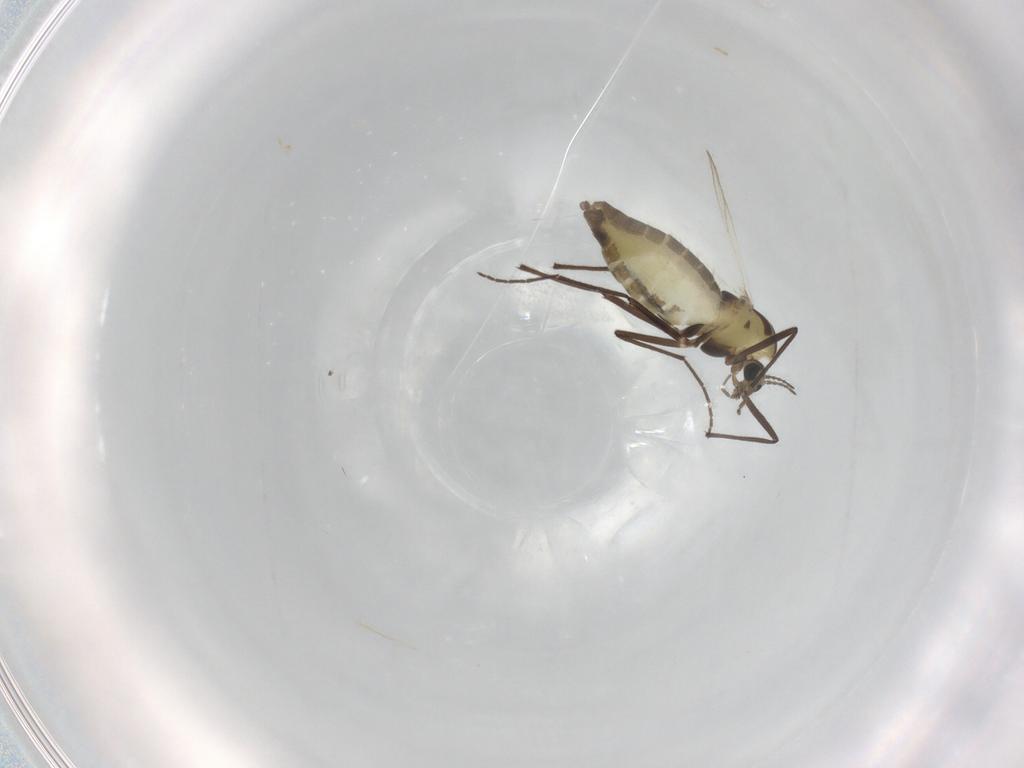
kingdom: Animalia
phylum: Arthropoda
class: Insecta
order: Diptera
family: Chironomidae
